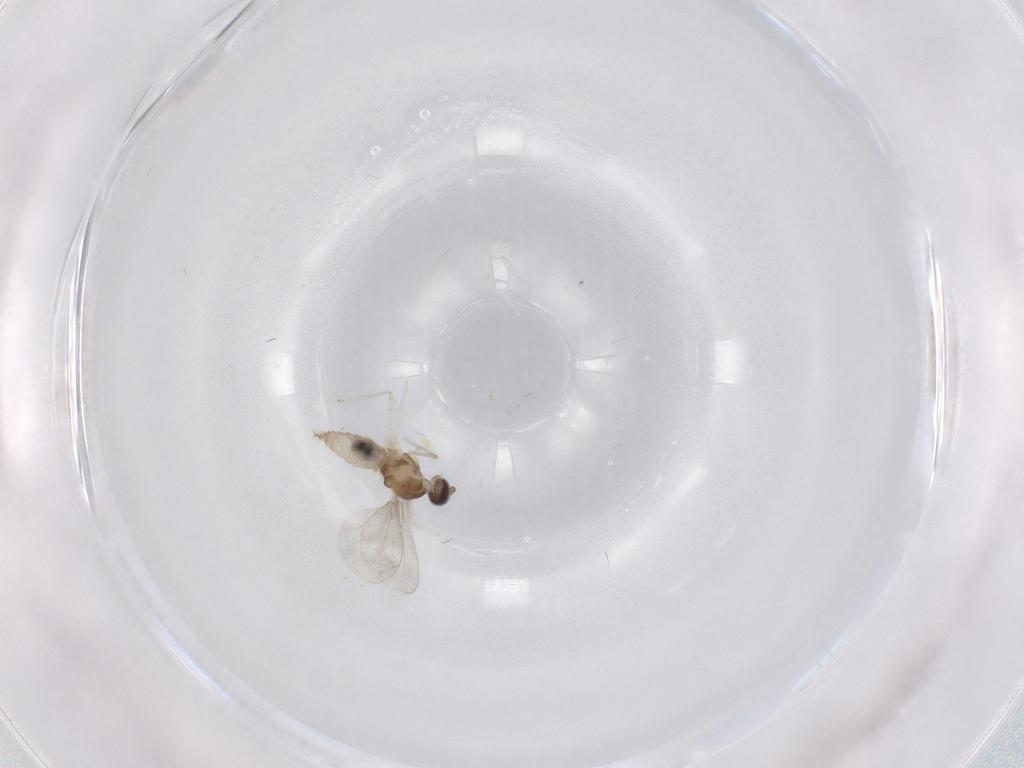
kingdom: Animalia
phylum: Arthropoda
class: Insecta
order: Diptera
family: Cecidomyiidae
